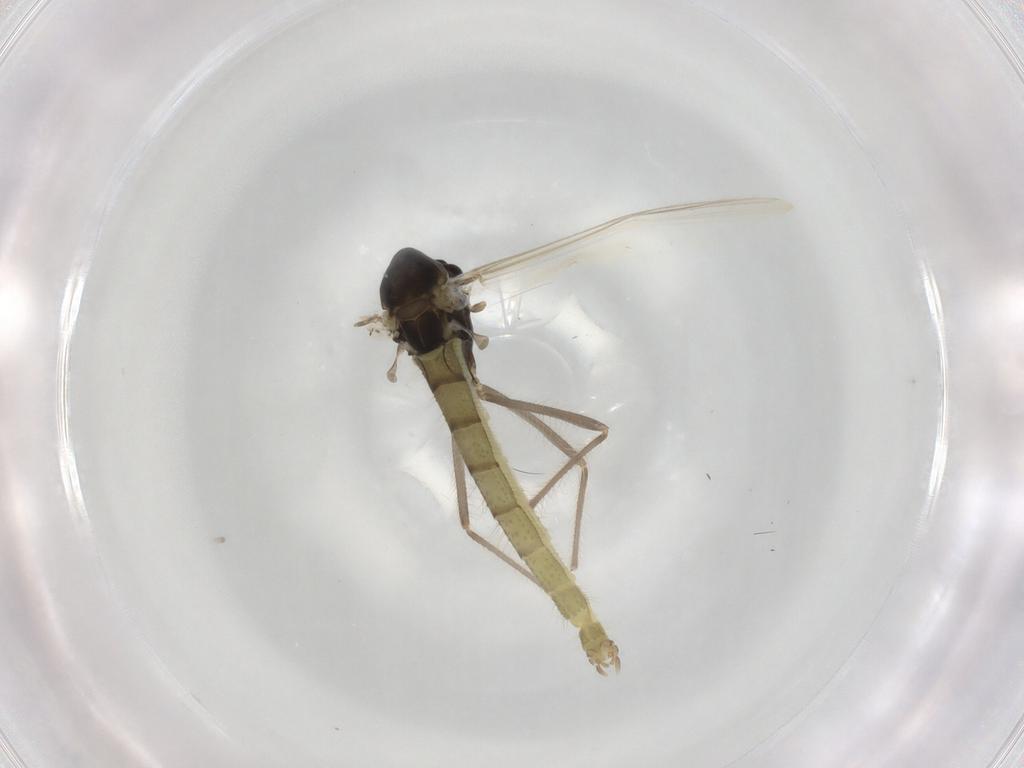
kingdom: Animalia
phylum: Arthropoda
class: Insecta
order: Diptera
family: Chironomidae
